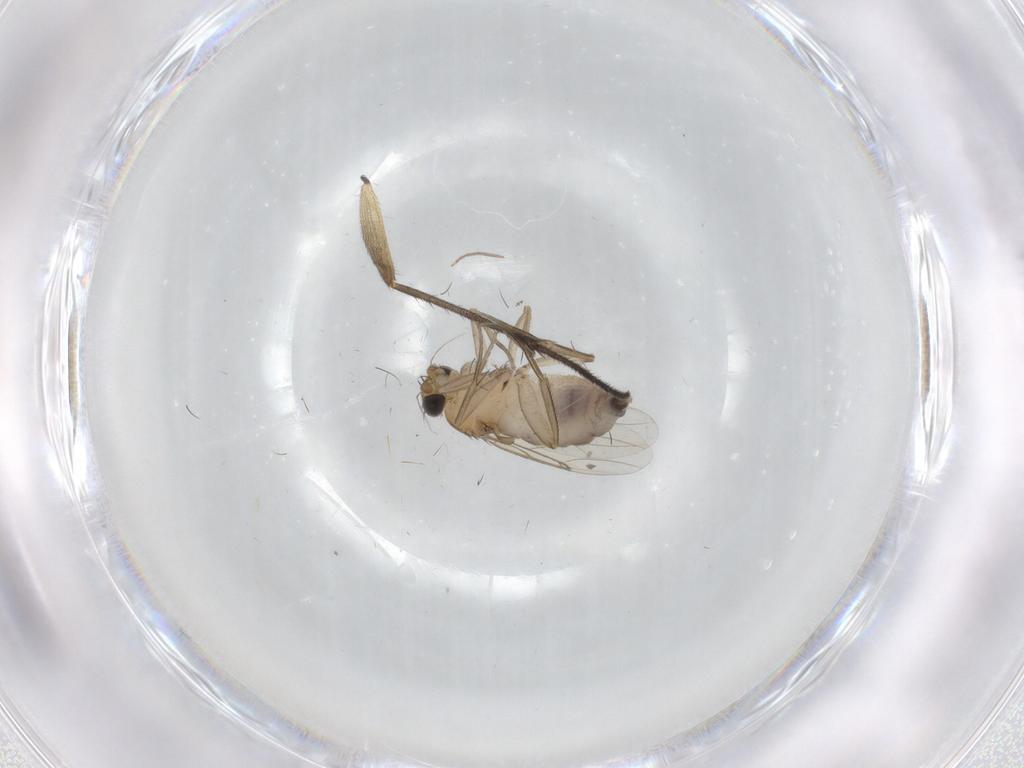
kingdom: Animalia
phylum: Arthropoda
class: Insecta
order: Diptera
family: Phoridae
